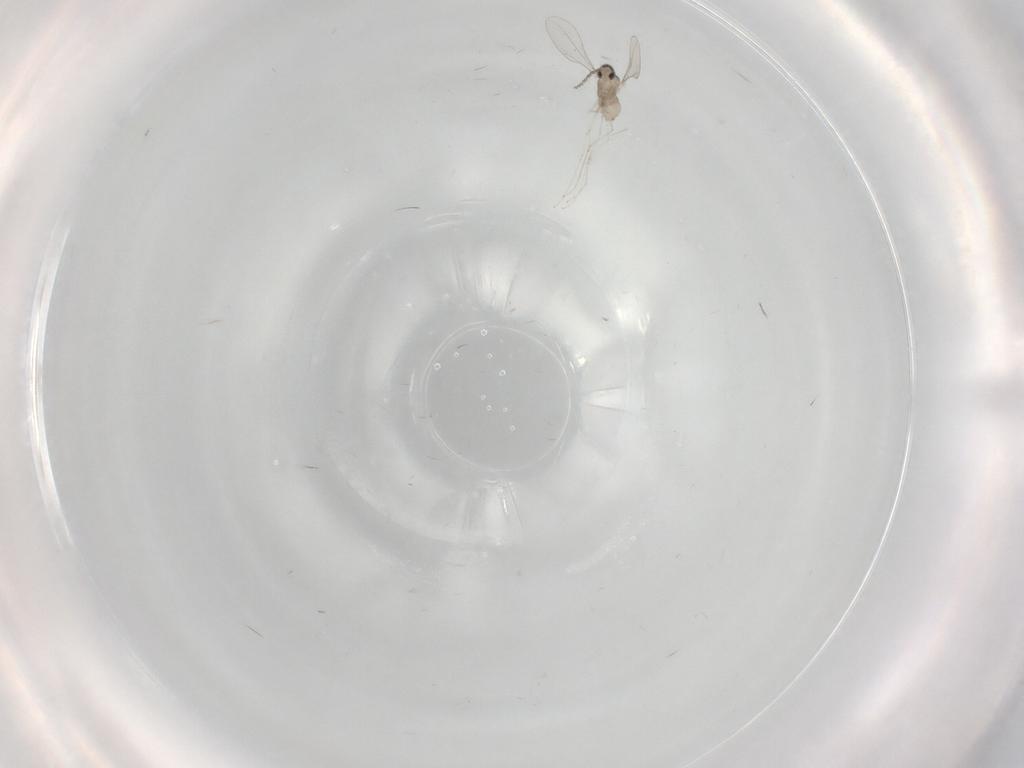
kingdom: Animalia
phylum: Arthropoda
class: Insecta
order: Diptera
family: Cecidomyiidae
